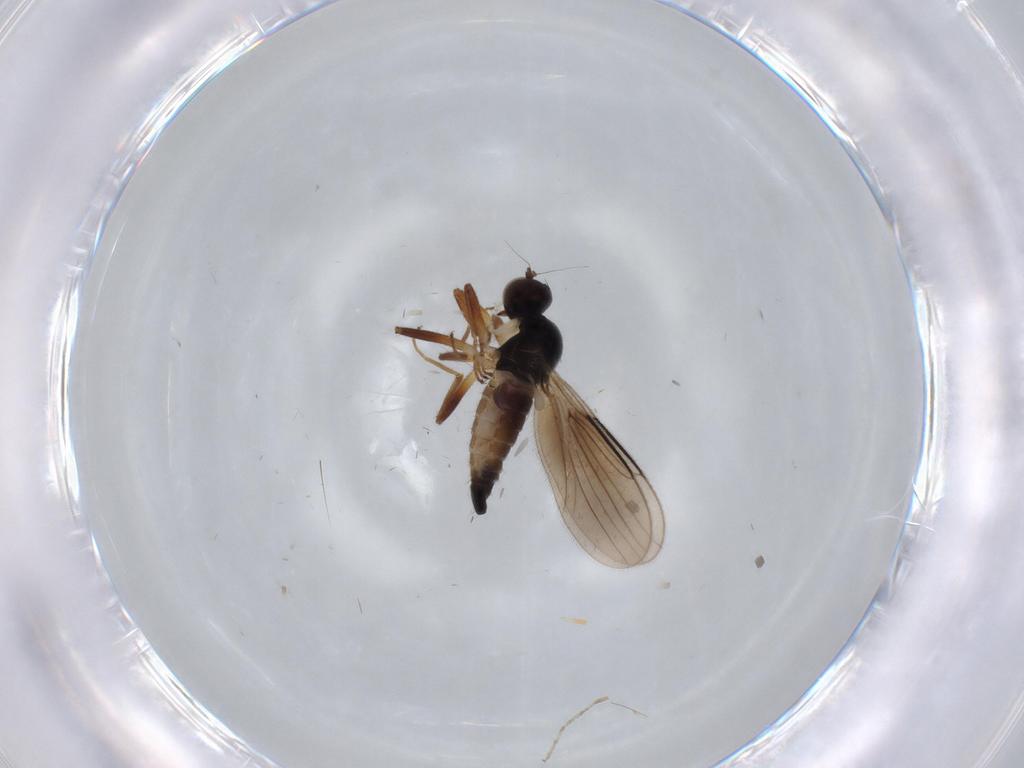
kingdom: Animalia
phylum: Arthropoda
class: Insecta
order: Diptera
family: Hybotidae
